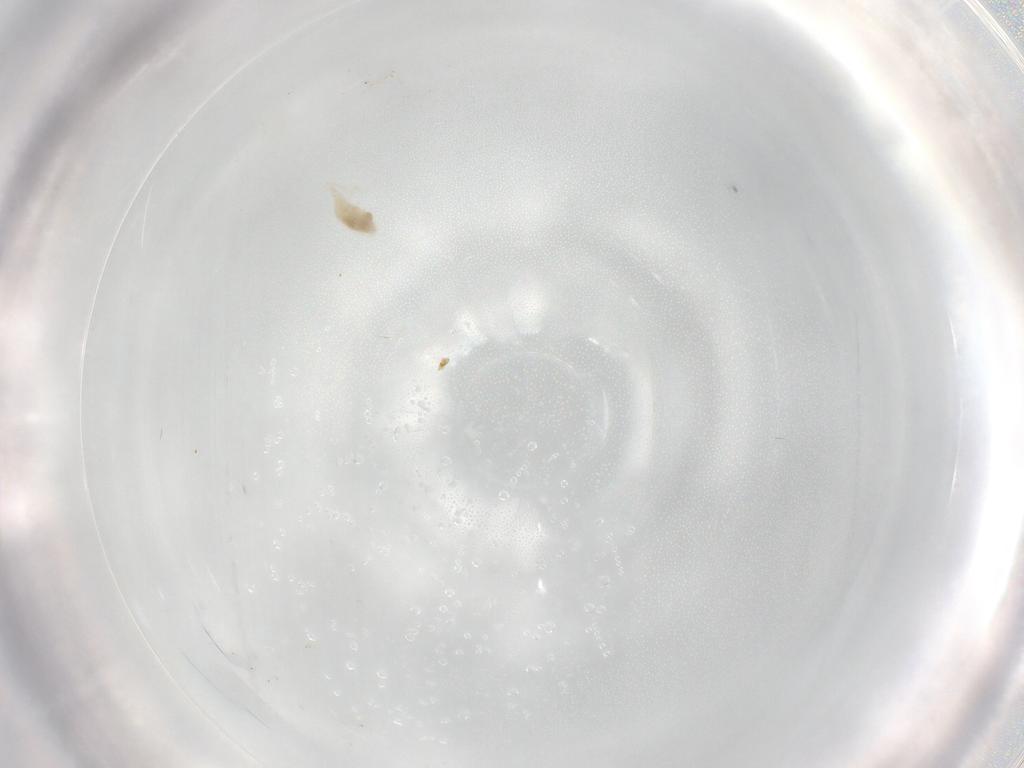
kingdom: Animalia
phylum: Arthropoda
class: Arachnida
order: Trombidiformes
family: Eupodidae
